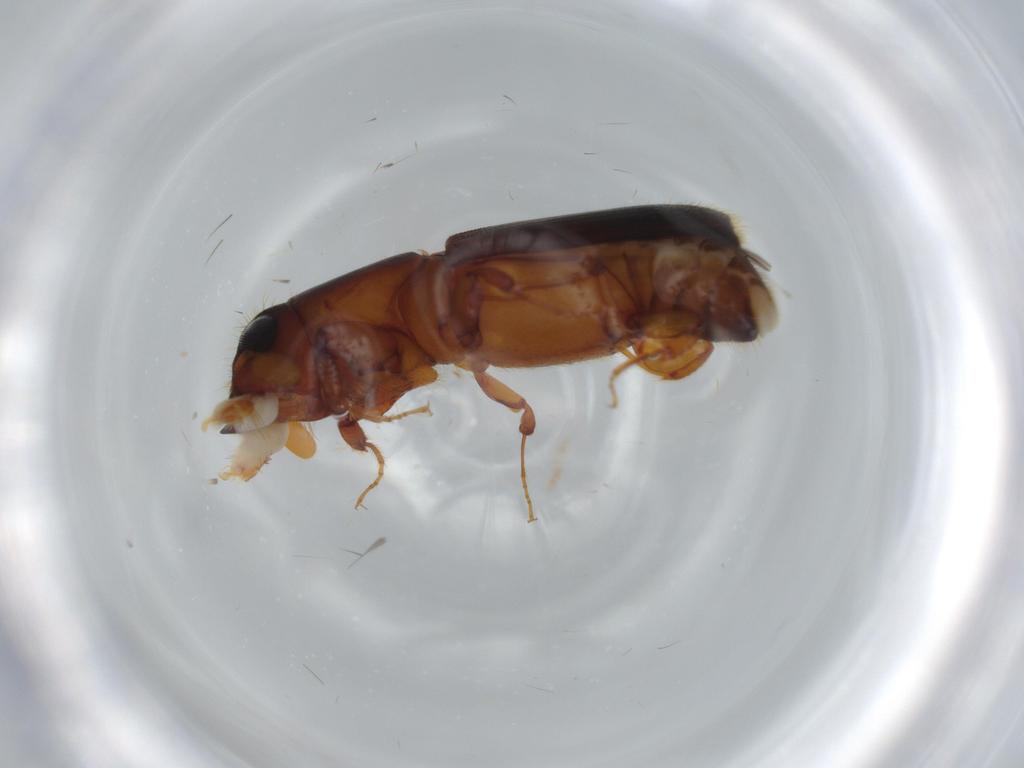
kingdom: Animalia
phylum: Arthropoda
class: Insecta
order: Coleoptera
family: Curculionidae
